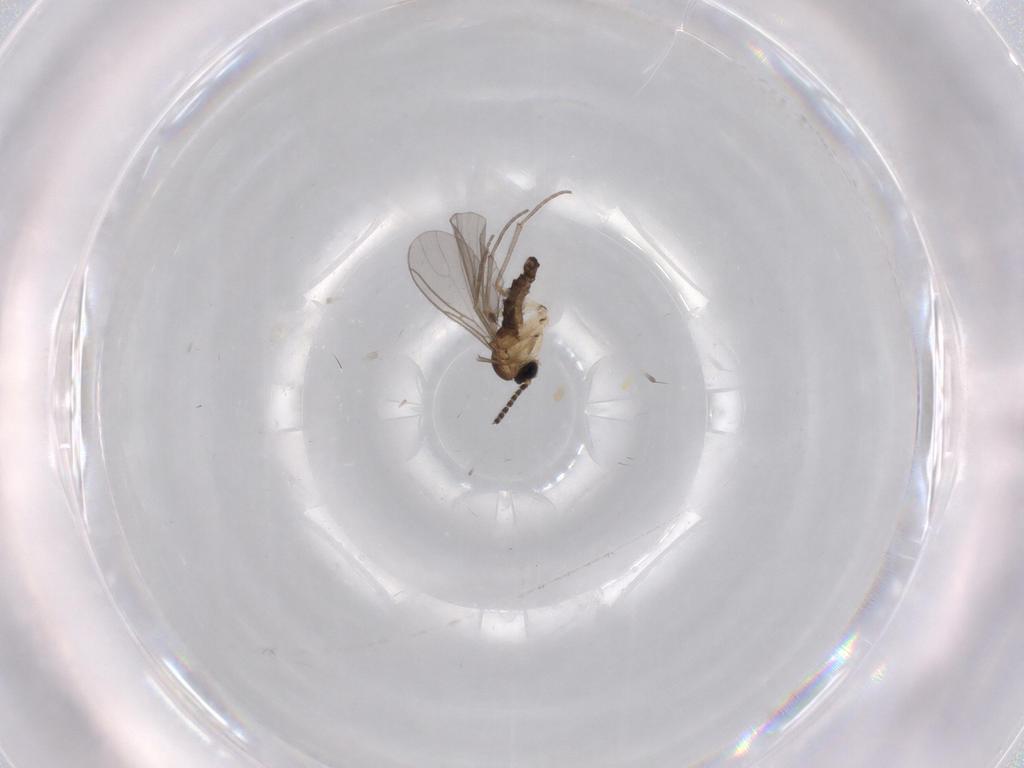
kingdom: Animalia
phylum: Arthropoda
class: Insecta
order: Diptera
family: Sciaridae
